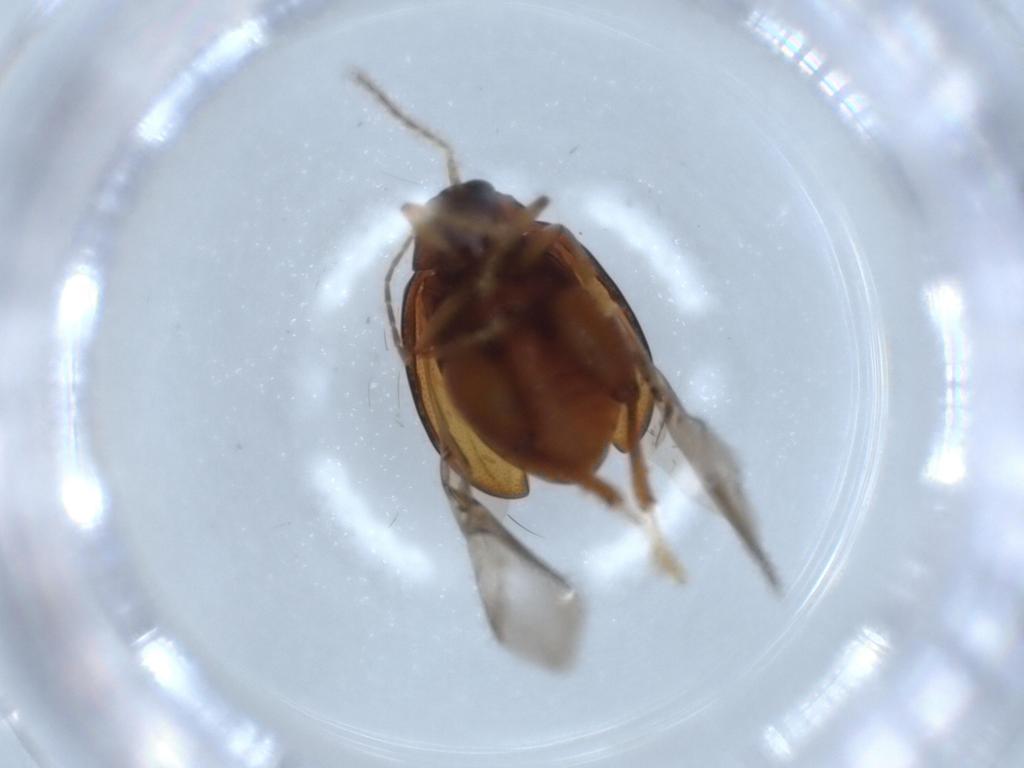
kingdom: Animalia
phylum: Arthropoda
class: Insecta
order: Coleoptera
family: Chrysomelidae
